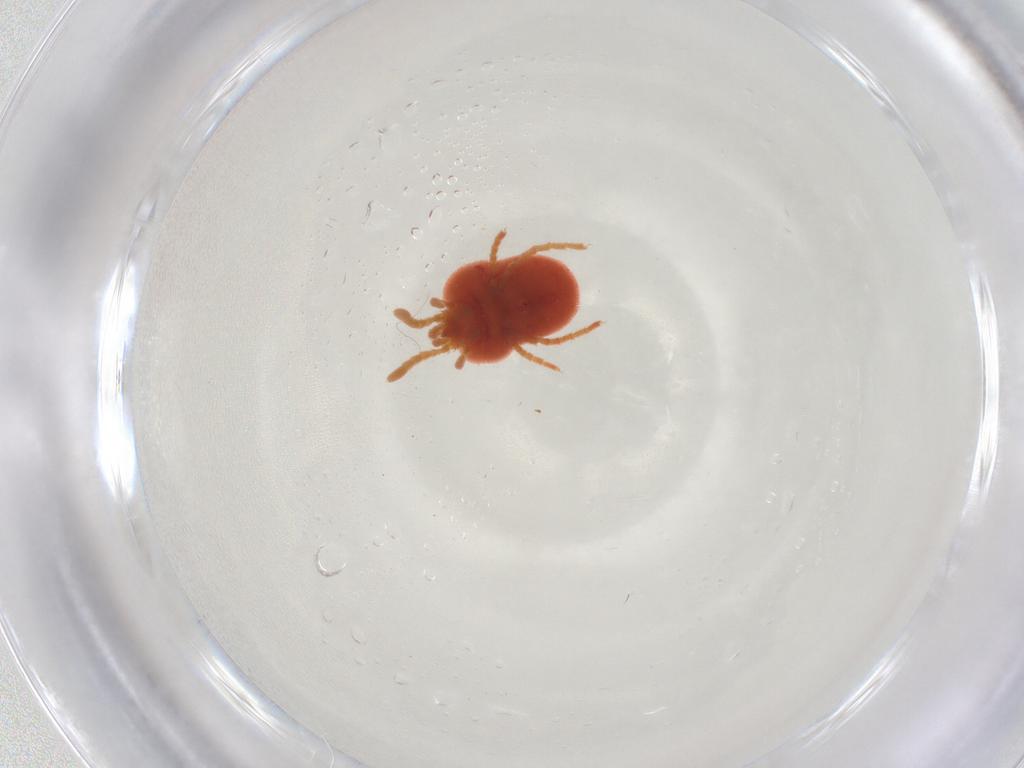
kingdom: Animalia
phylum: Arthropoda
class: Arachnida
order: Trombidiformes
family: Microtrombidiidae
